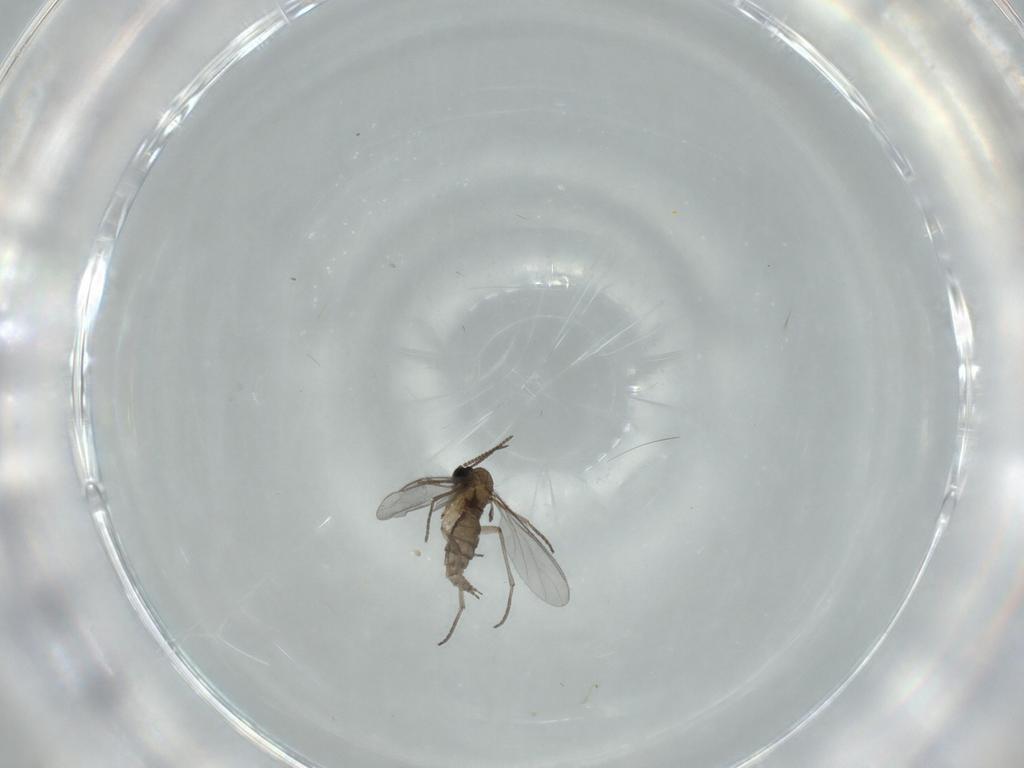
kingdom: Animalia
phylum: Arthropoda
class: Insecta
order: Diptera
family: Sciaridae
